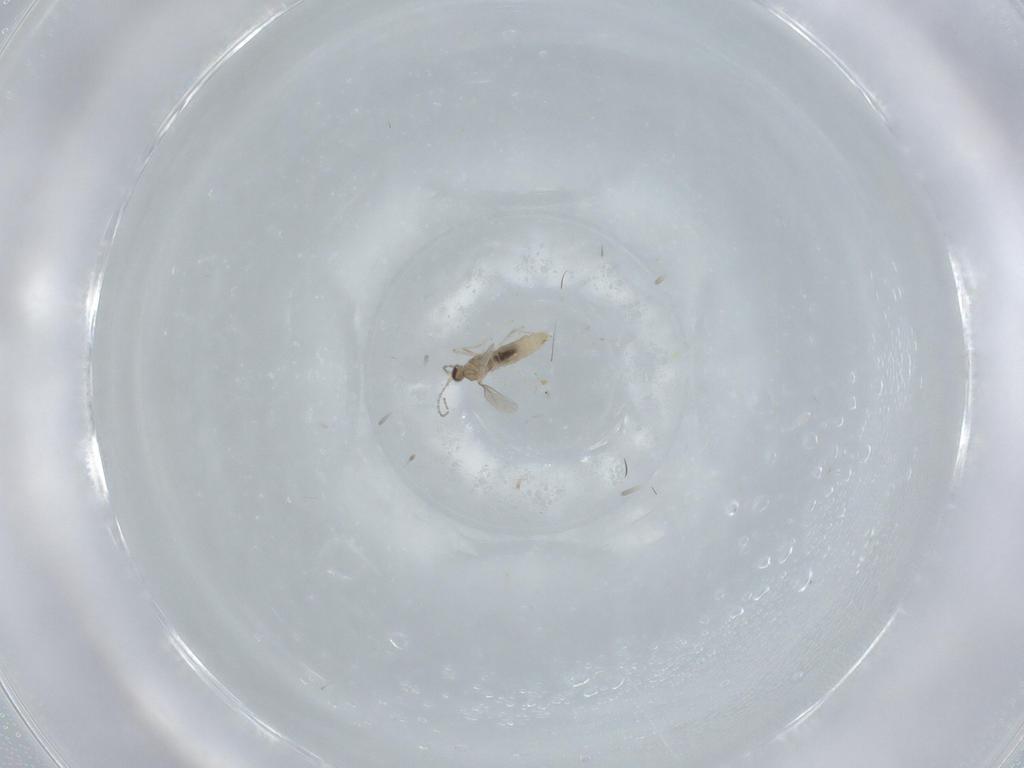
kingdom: Animalia
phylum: Arthropoda
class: Insecta
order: Diptera
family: Cecidomyiidae
